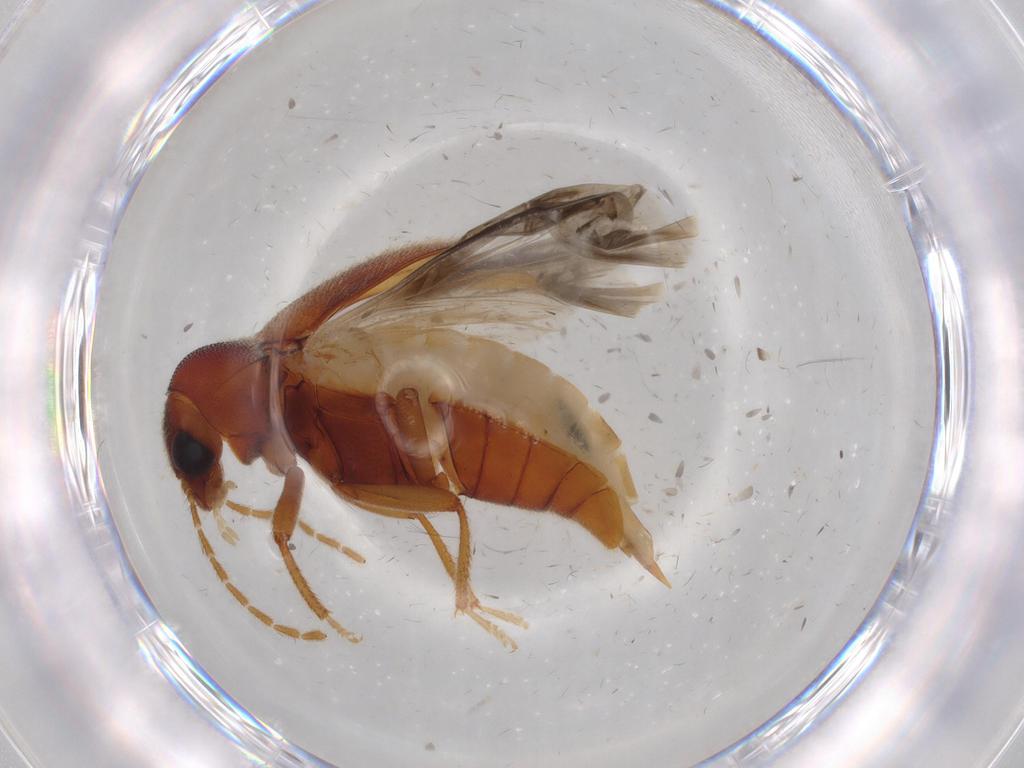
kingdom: Animalia
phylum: Arthropoda
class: Insecta
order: Coleoptera
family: Ptilodactylidae
